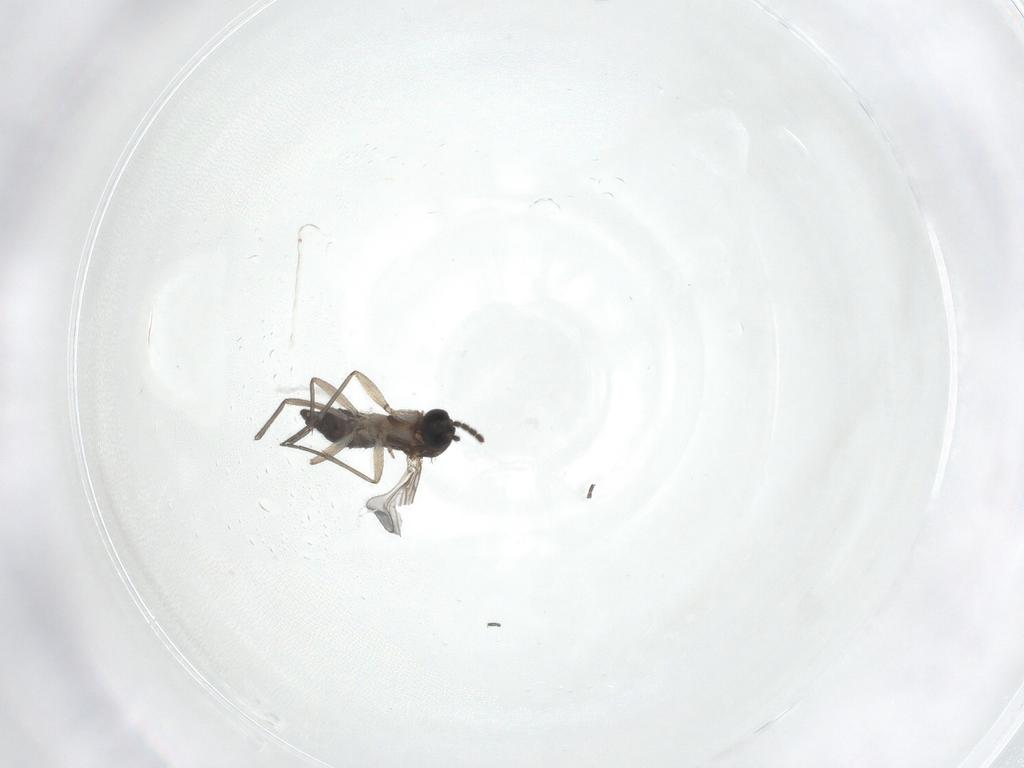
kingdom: Animalia
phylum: Arthropoda
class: Insecta
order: Diptera
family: Sciaridae
